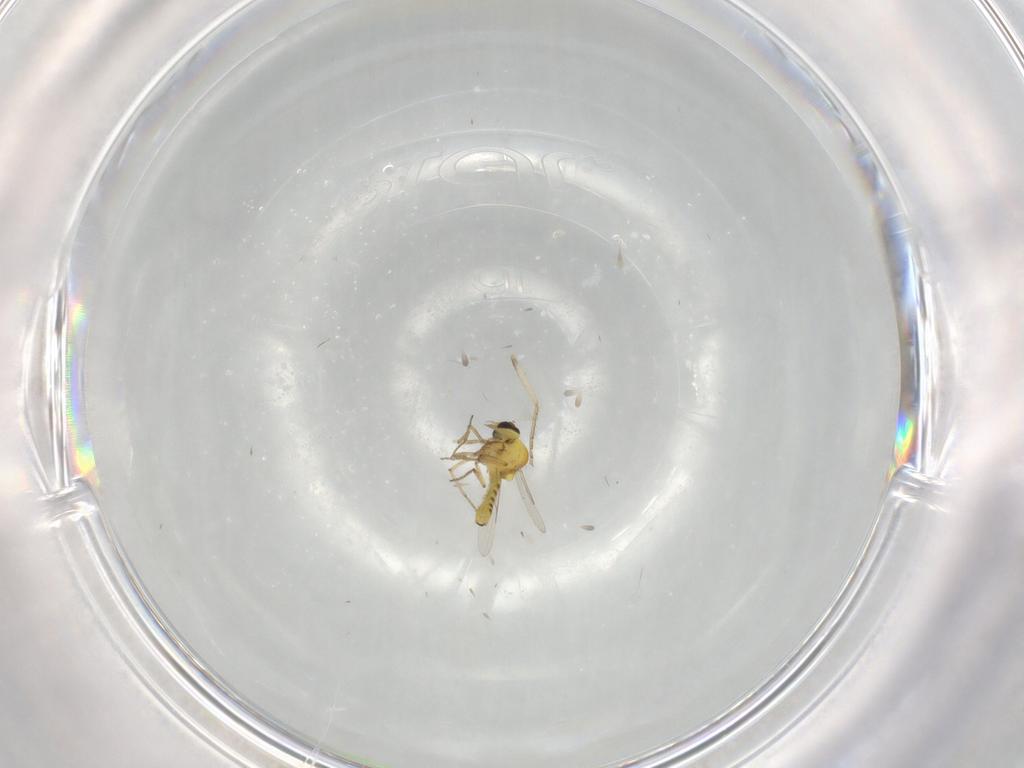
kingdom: Animalia
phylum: Arthropoda
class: Insecta
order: Diptera
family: Ceratopogonidae
